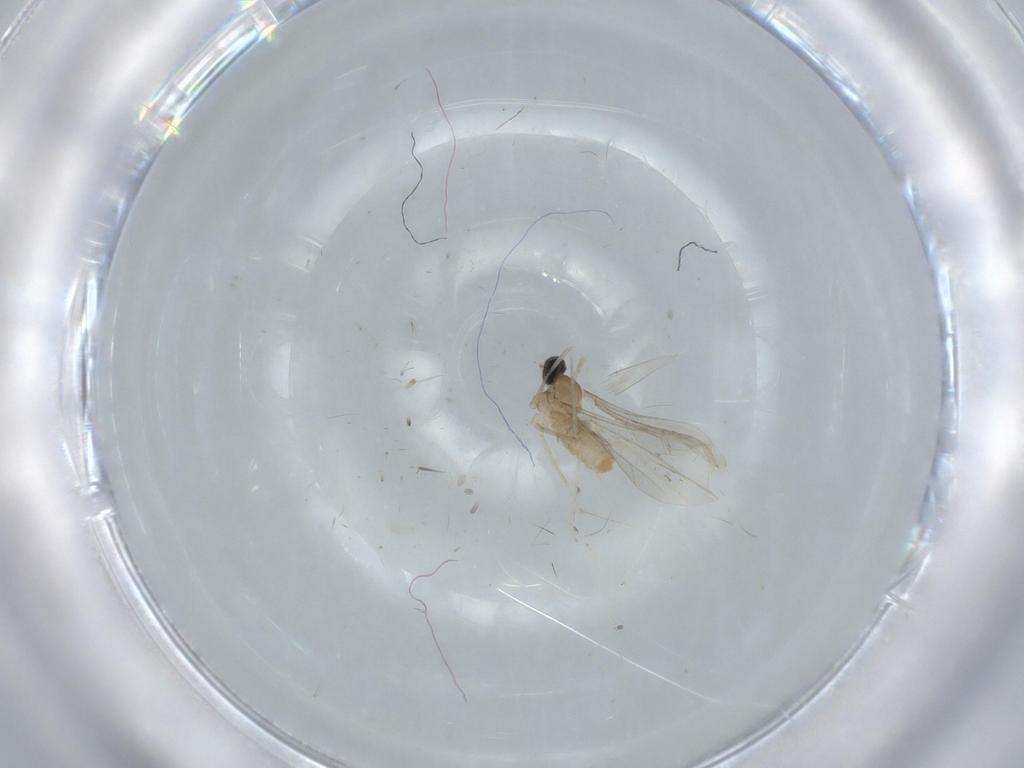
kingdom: Animalia
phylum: Arthropoda
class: Insecta
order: Diptera
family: Cecidomyiidae
